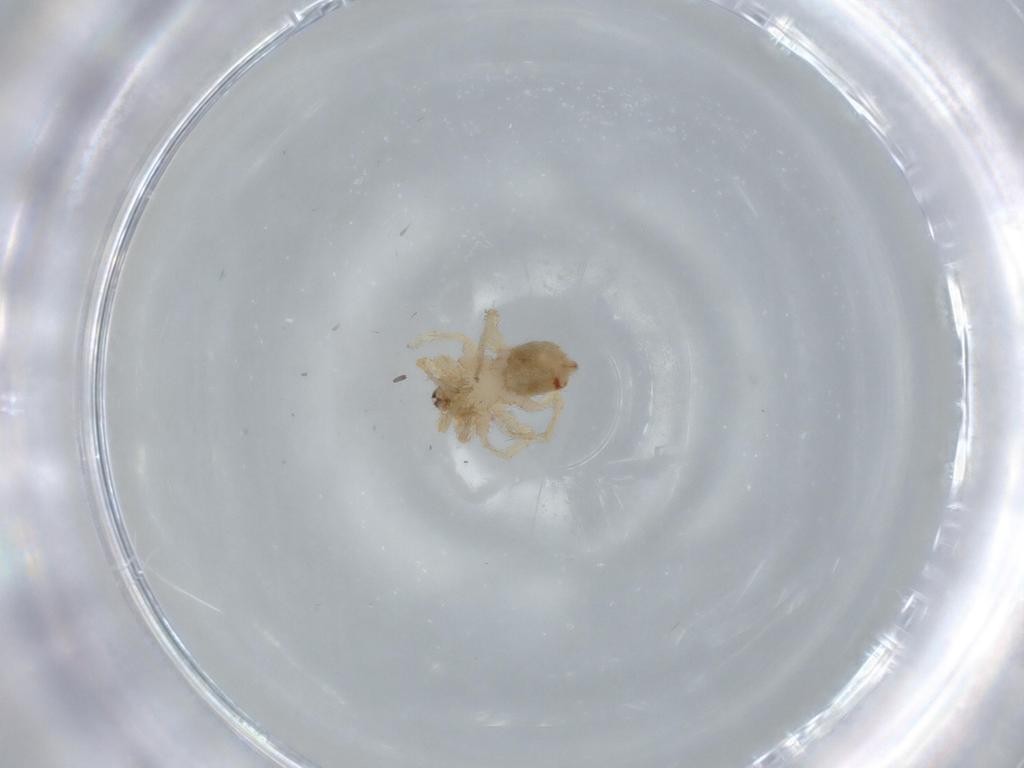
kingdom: Animalia
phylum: Arthropoda
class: Arachnida
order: Araneae
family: Oonopidae
